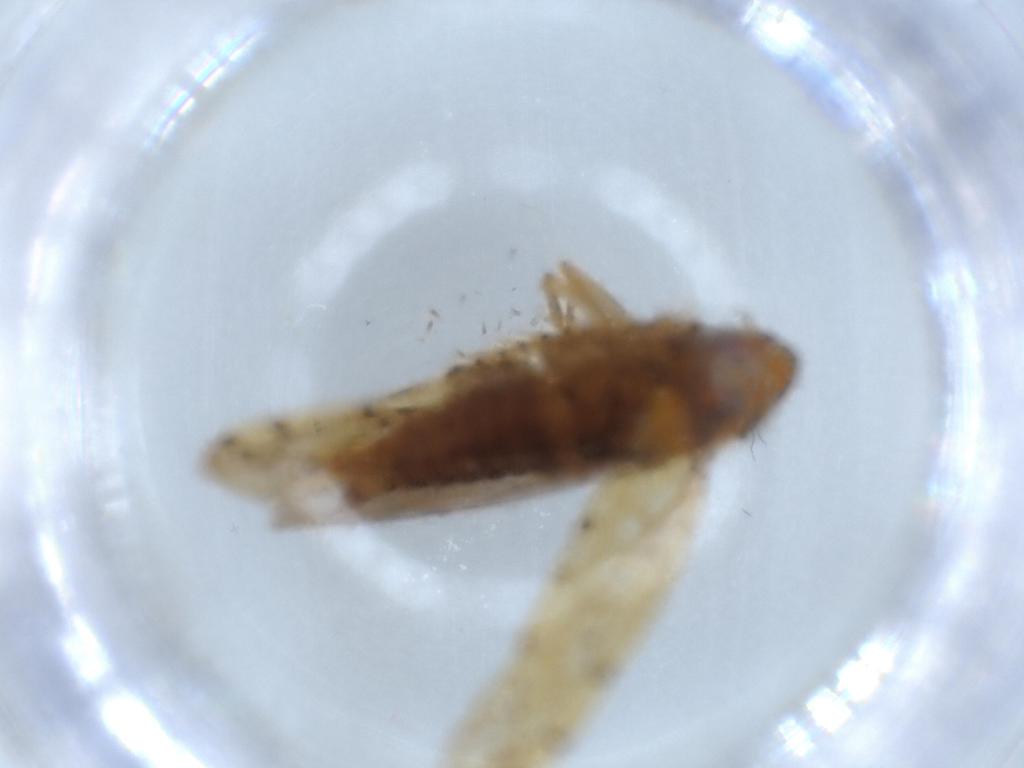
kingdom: Animalia
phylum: Arthropoda
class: Insecta
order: Hemiptera
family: Cicadellidae
